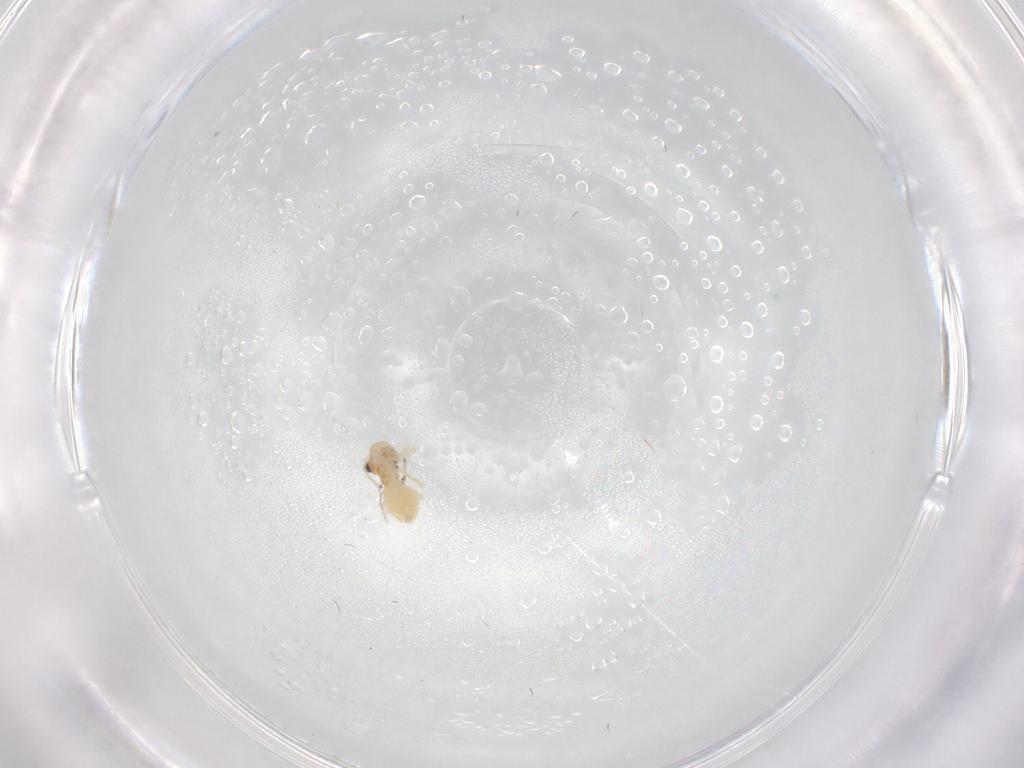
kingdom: Animalia
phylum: Arthropoda
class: Insecta
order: Psocodea
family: Caeciliusidae
